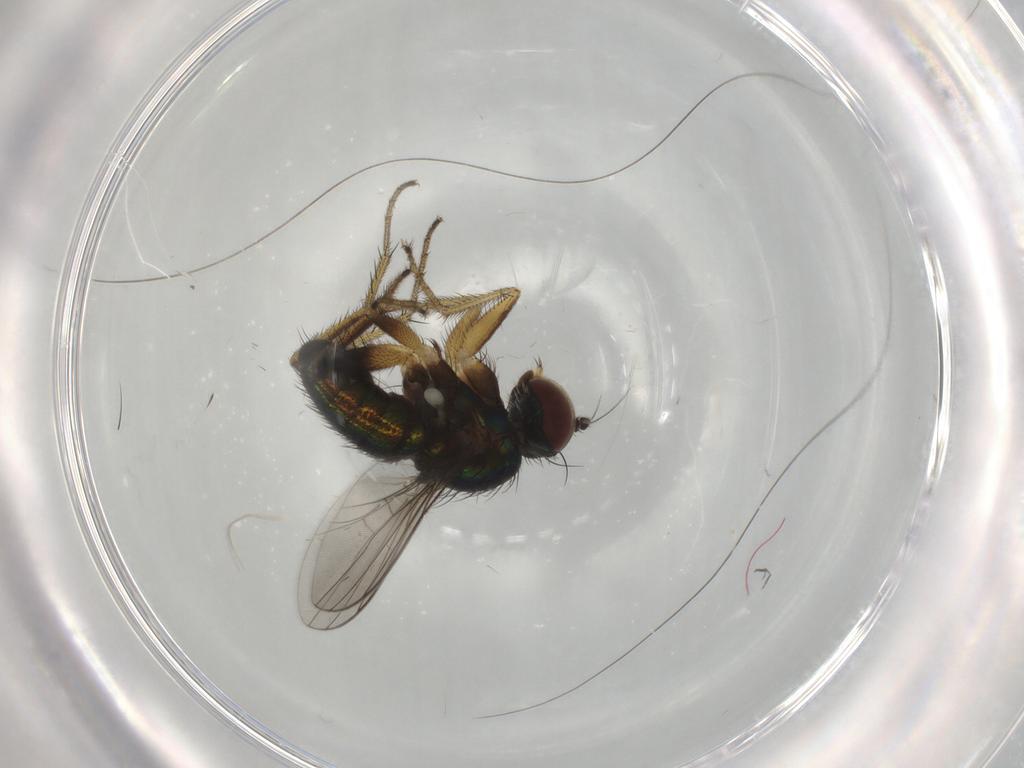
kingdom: Animalia
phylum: Arthropoda
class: Insecta
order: Diptera
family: Dolichopodidae
